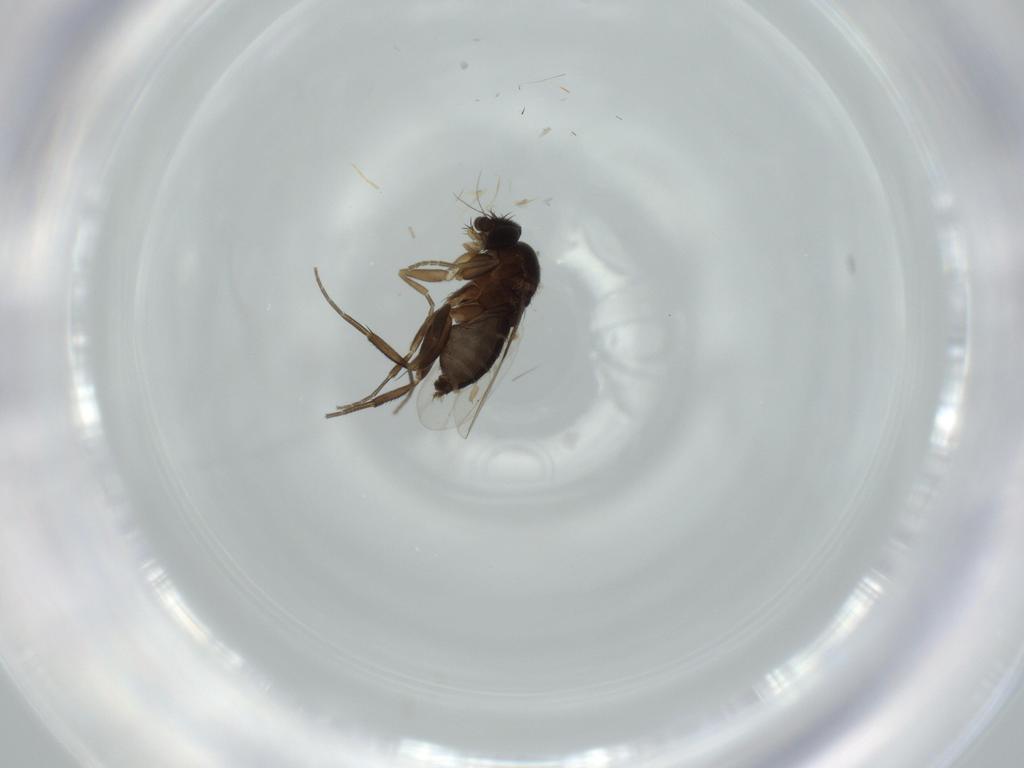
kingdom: Animalia
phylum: Arthropoda
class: Insecta
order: Diptera
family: Phoridae
